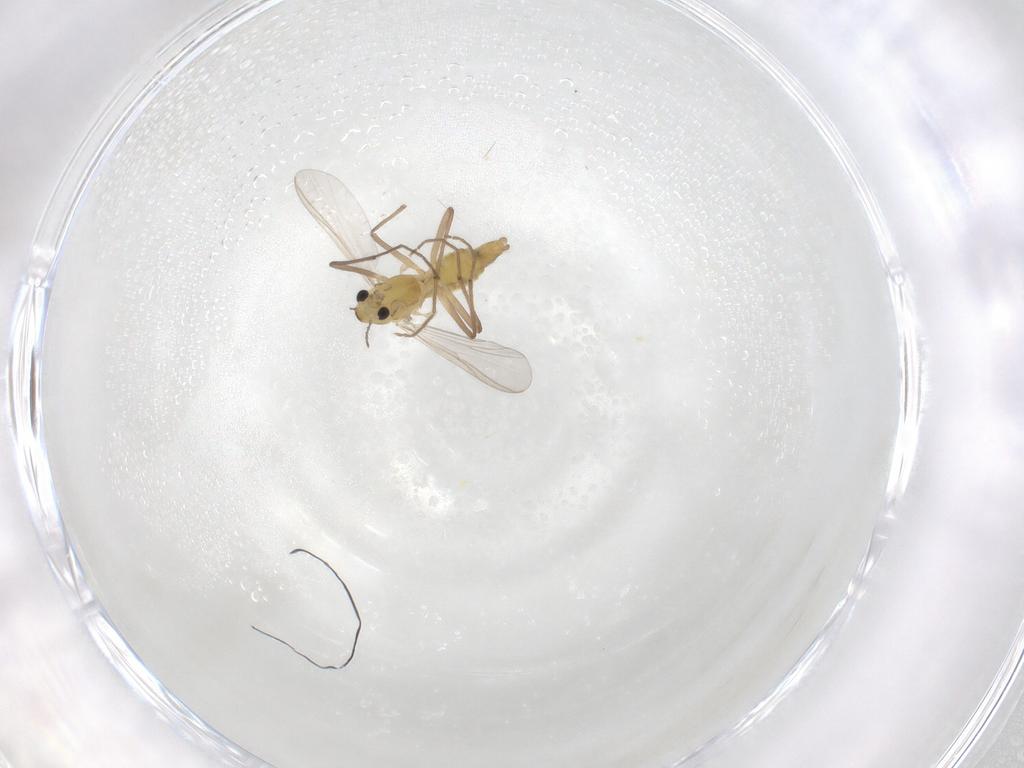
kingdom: Animalia
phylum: Arthropoda
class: Insecta
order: Diptera
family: Chironomidae
